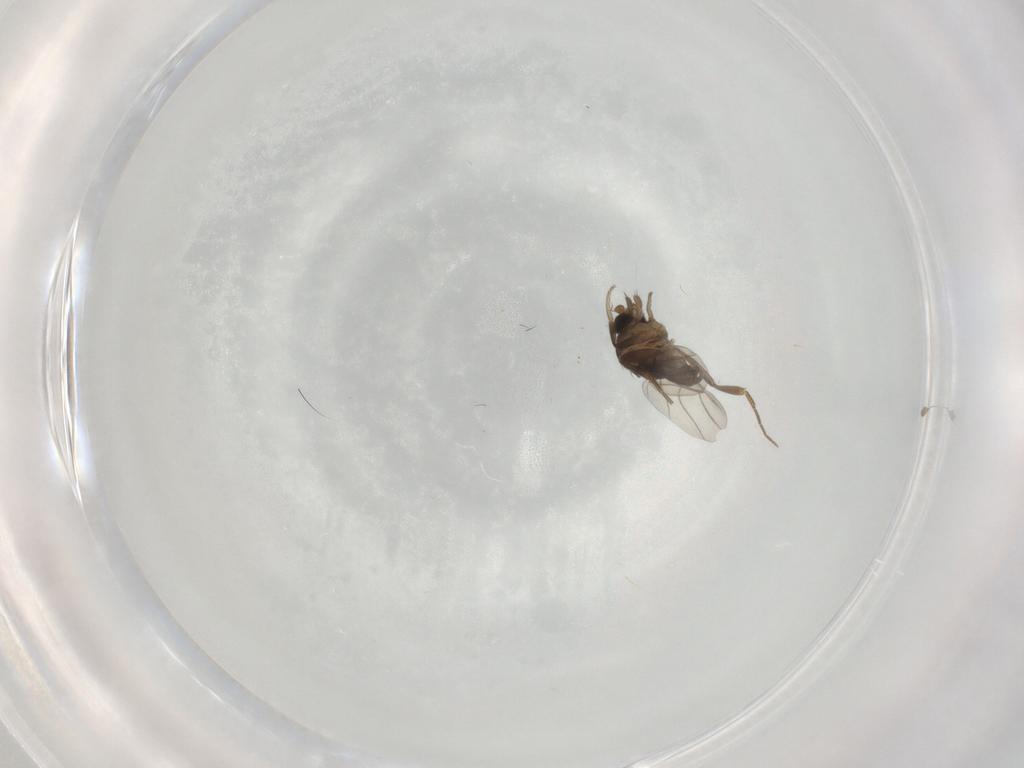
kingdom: Animalia
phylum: Arthropoda
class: Insecta
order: Diptera
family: Phoridae
